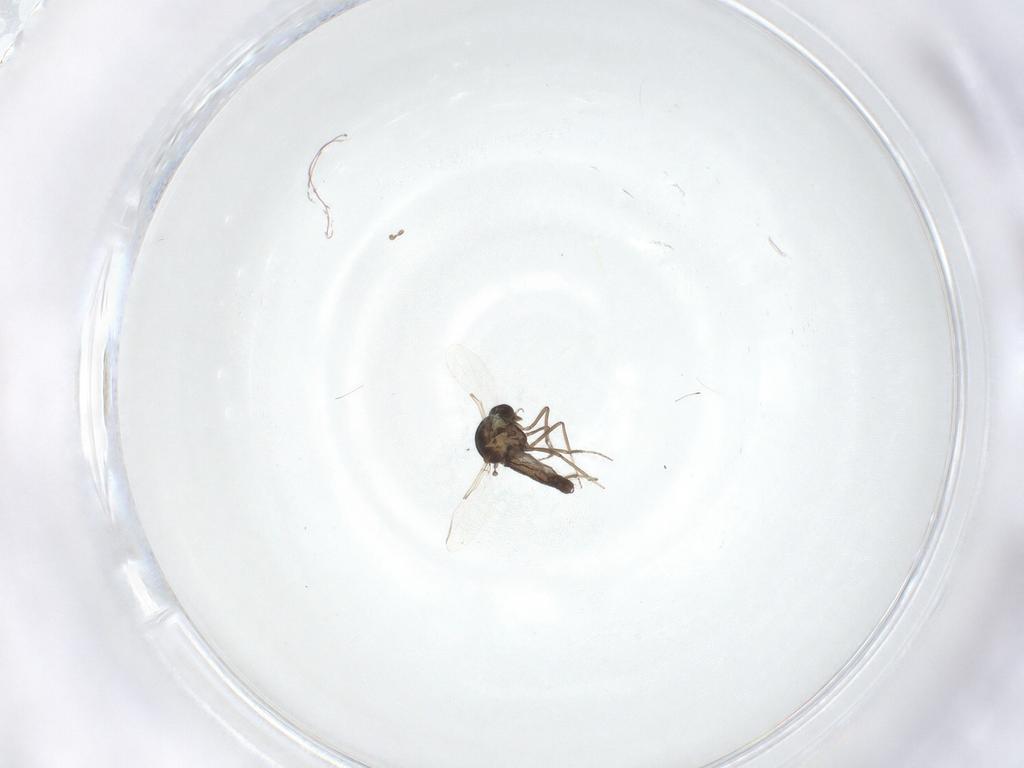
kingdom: Animalia
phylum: Arthropoda
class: Insecta
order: Diptera
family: Ceratopogonidae
